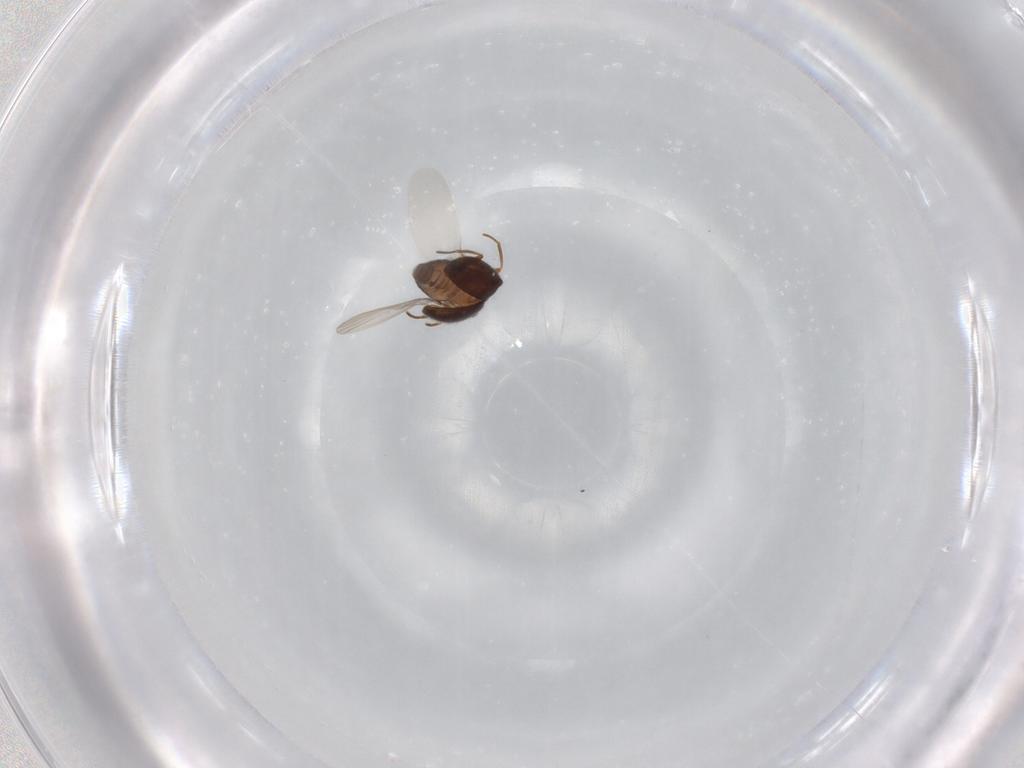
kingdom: Animalia
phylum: Arthropoda
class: Insecta
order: Coleoptera
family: Cryptophagidae
